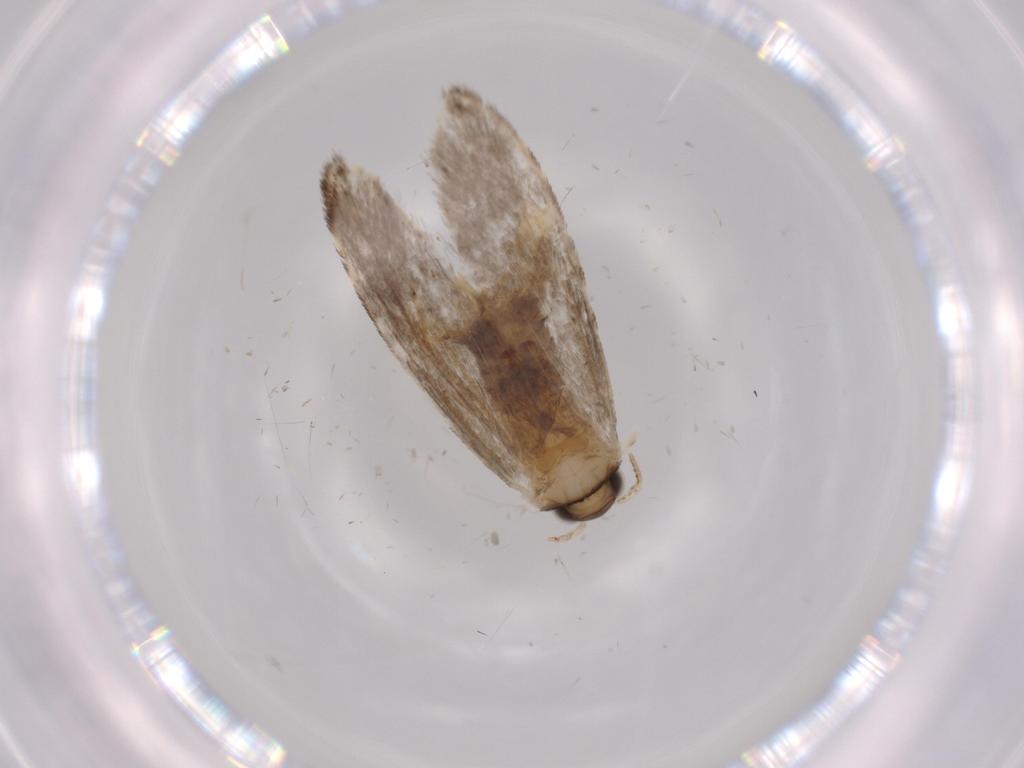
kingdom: Animalia
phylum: Arthropoda
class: Insecta
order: Lepidoptera
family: Tineidae
